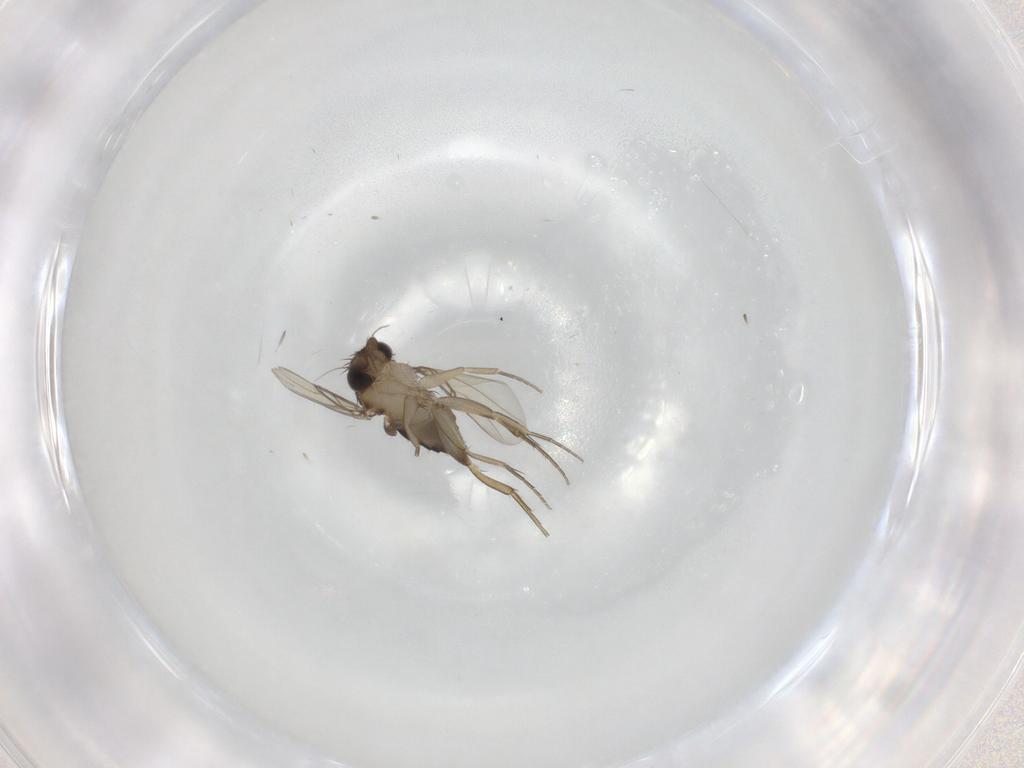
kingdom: Animalia
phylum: Arthropoda
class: Insecta
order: Diptera
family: Phoridae
